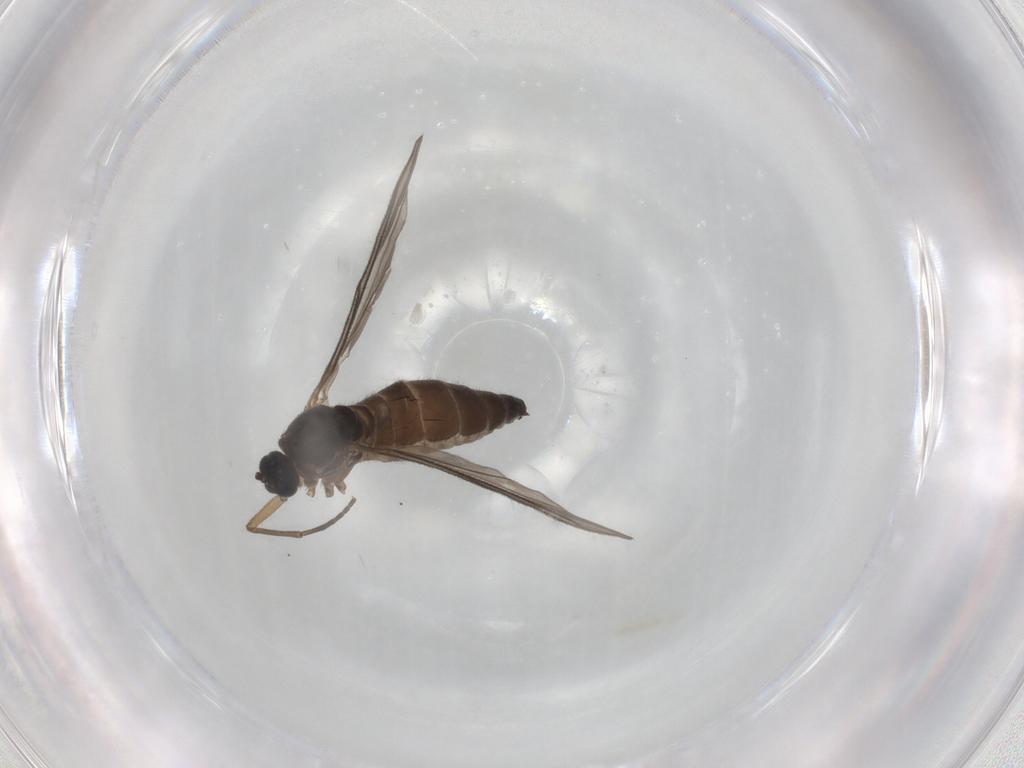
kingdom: Animalia
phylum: Arthropoda
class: Insecta
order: Diptera
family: Sciaridae
